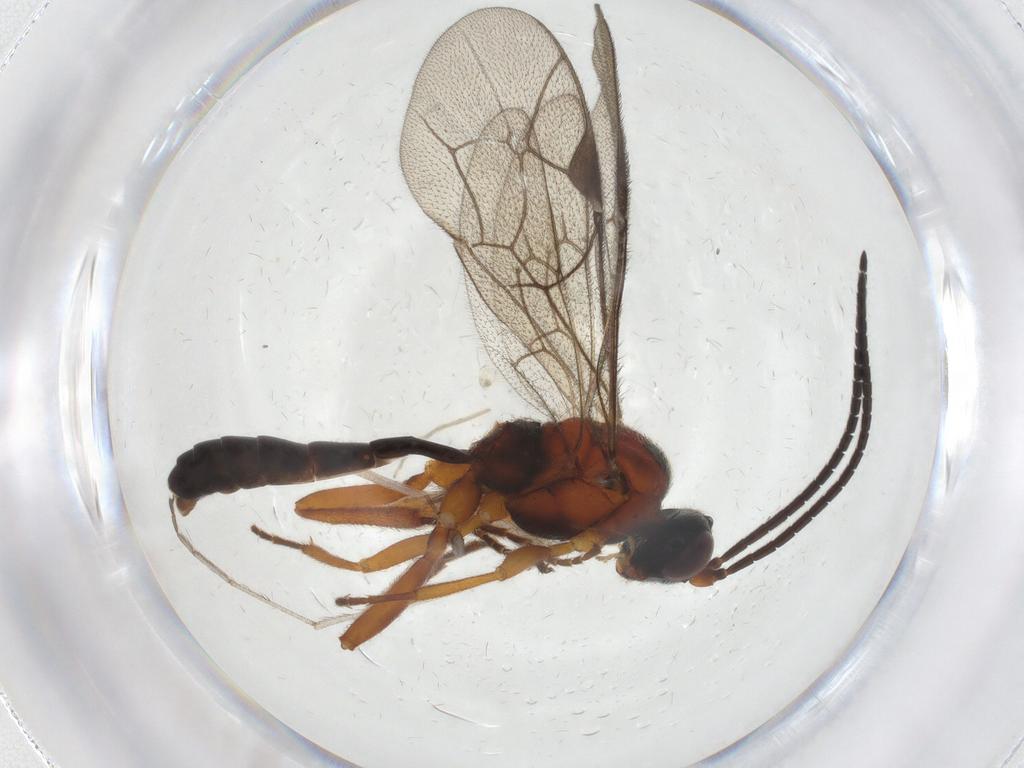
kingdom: Animalia
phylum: Arthropoda
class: Insecta
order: Hymenoptera
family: Ichneumonidae
